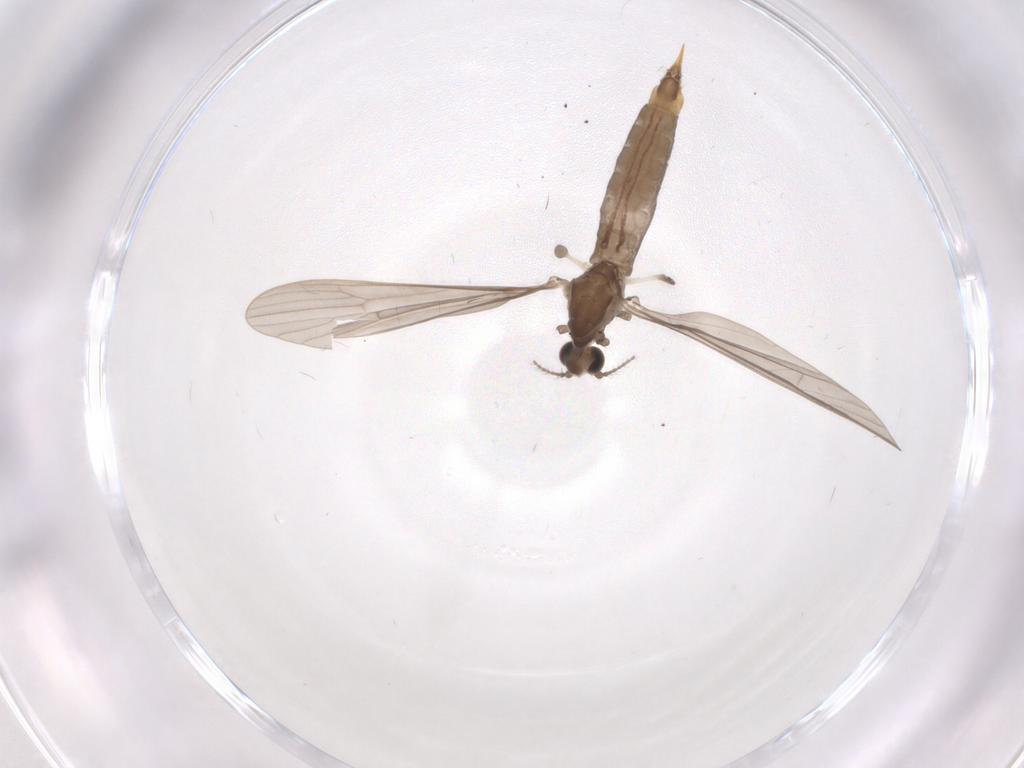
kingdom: Animalia
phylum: Arthropoda
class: Insecta
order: Diptera
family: Limoniidae
